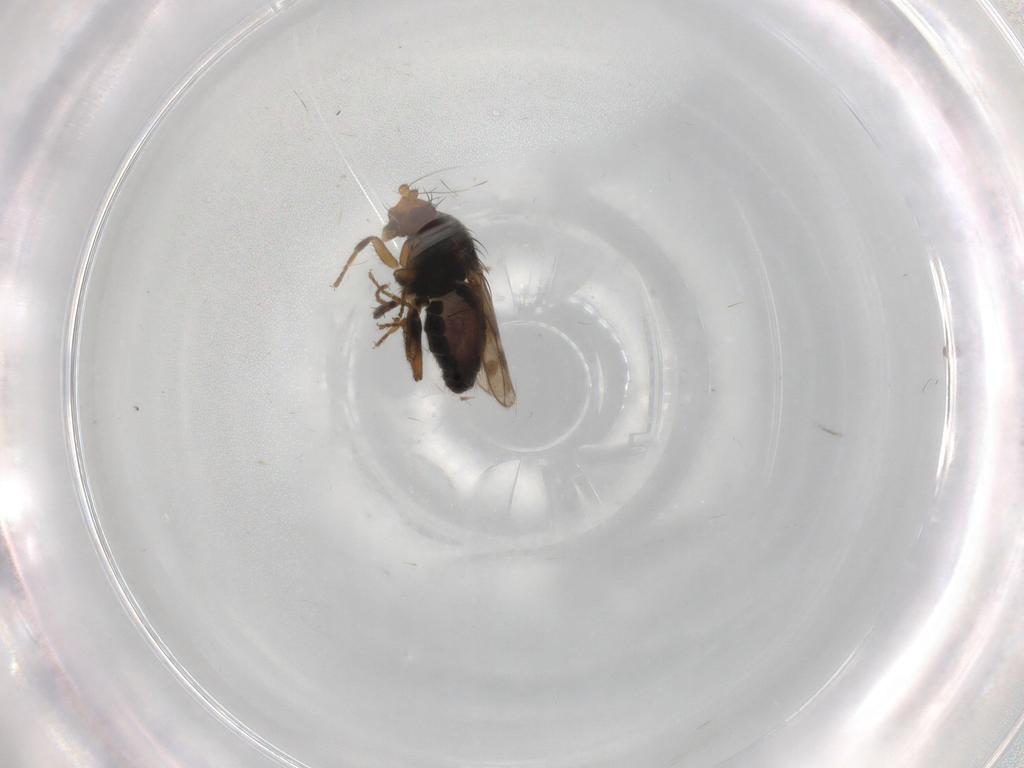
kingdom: Animalia
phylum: Arthropoda
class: Insecta
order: Diptera
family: Sphaeroceridae
